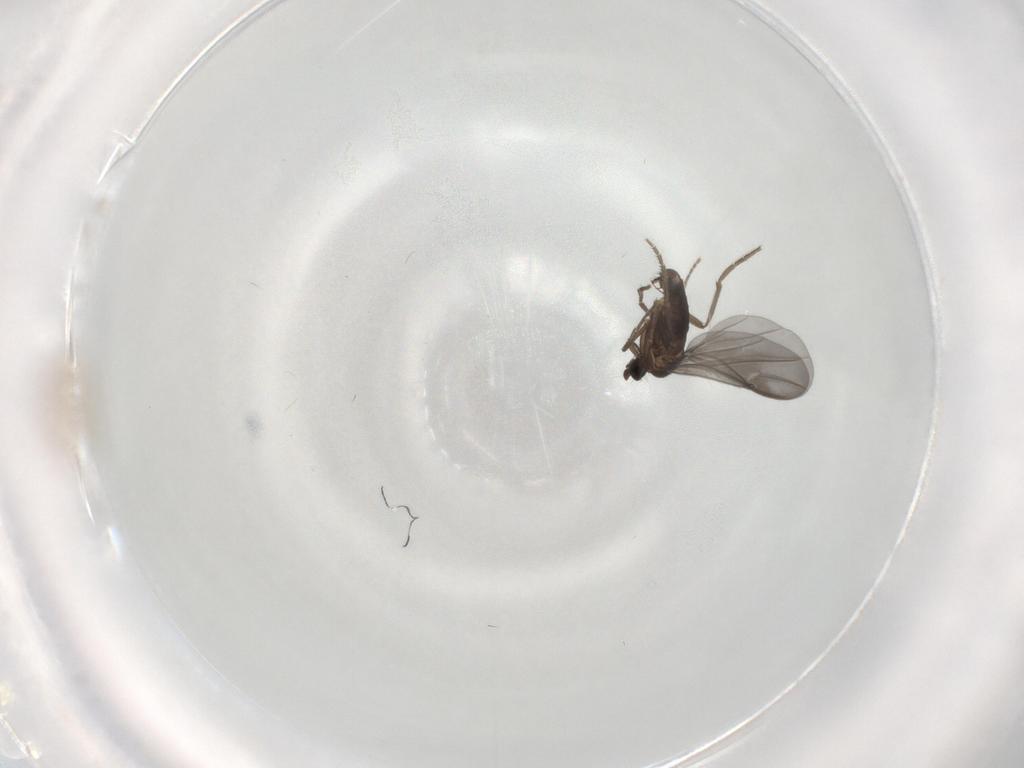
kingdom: Animalia
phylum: Arthropoda
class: Insecta
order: Diptera
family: Phoridae
